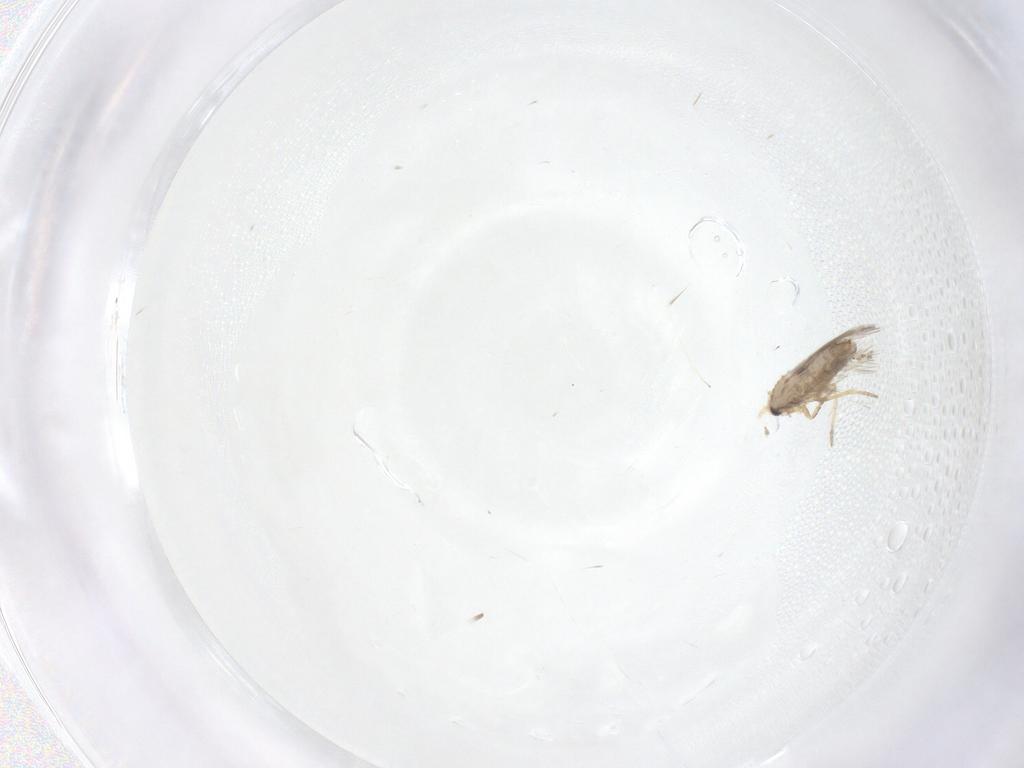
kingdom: Animalia
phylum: Arthropoda
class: Insecta
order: Lepidoptera
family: Nepticulidae
